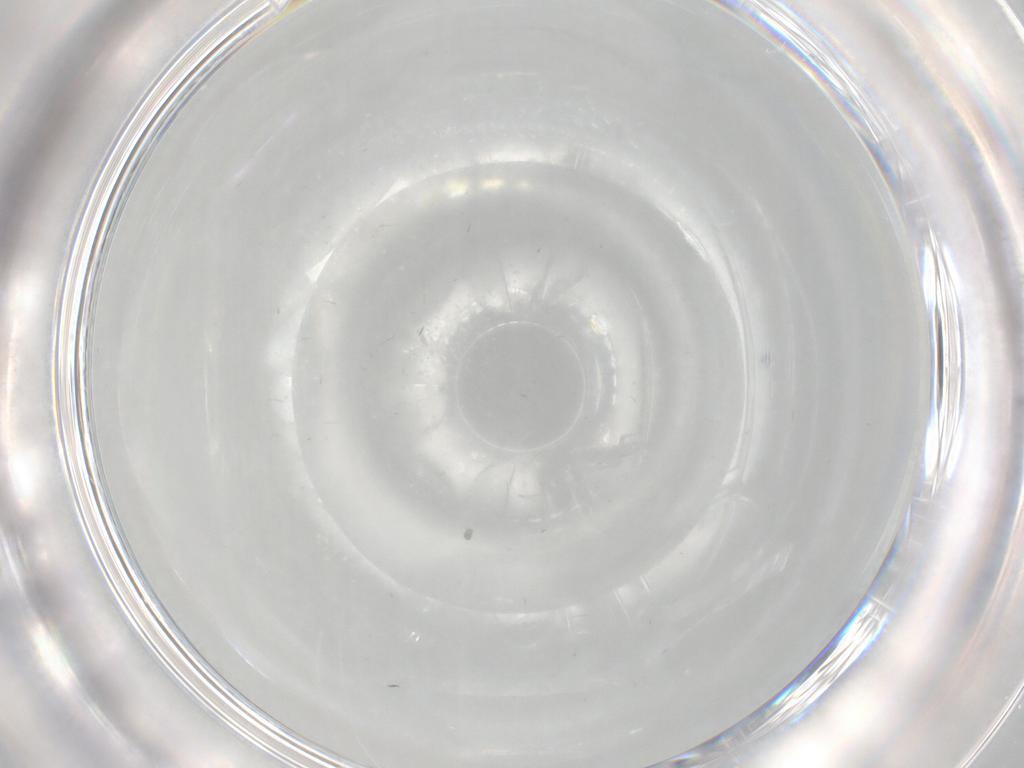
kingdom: Animalia
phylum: Arthropoda
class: Insecta
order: Diptera
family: Chironomidae
